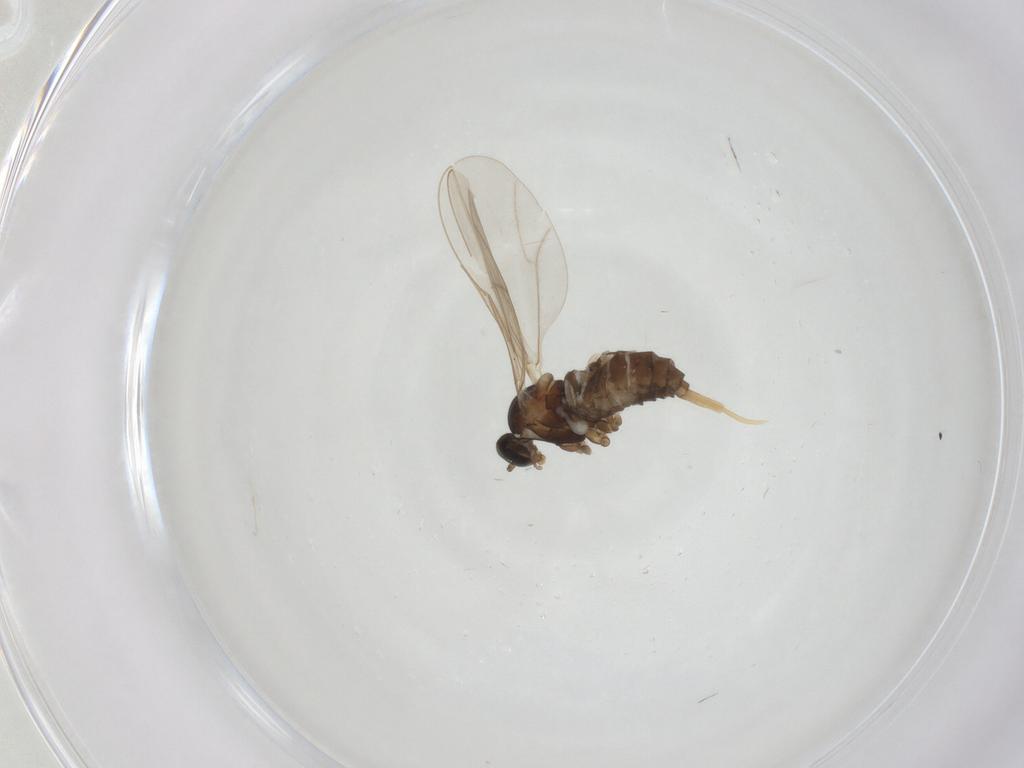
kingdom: Animalia
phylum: Arthropoda
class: Insecta
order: Diptera
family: Cecidomyiidae
